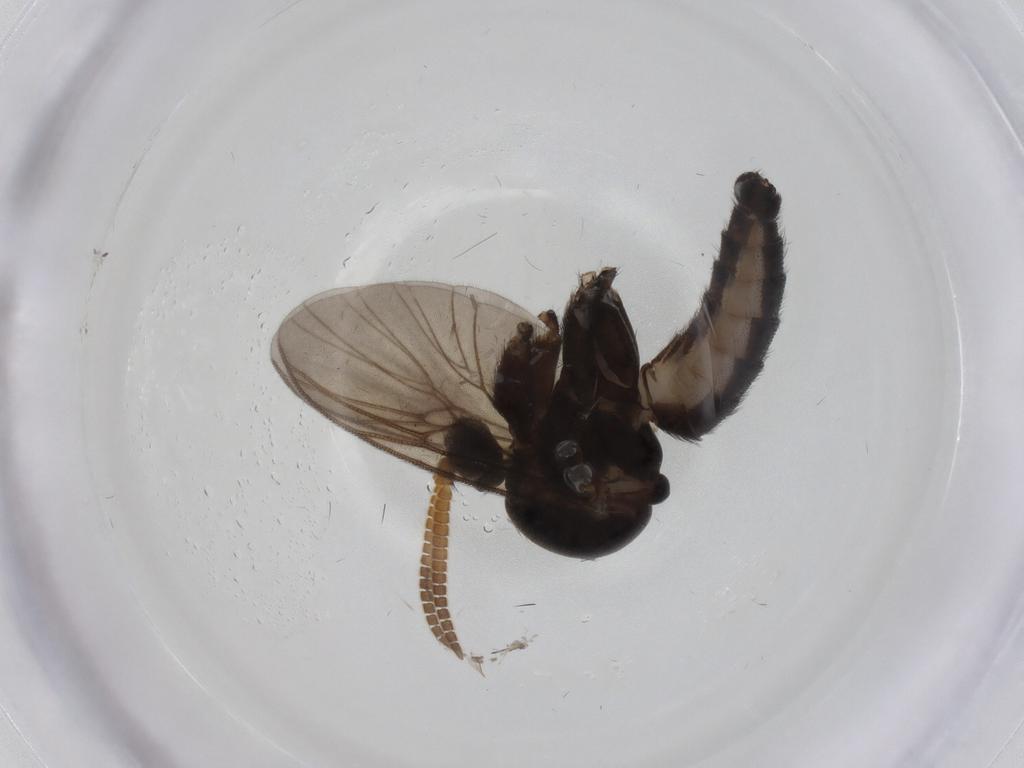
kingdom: Animalia
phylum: Arthropoda
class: Insecta
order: Diptera
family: Mycetophilidae
